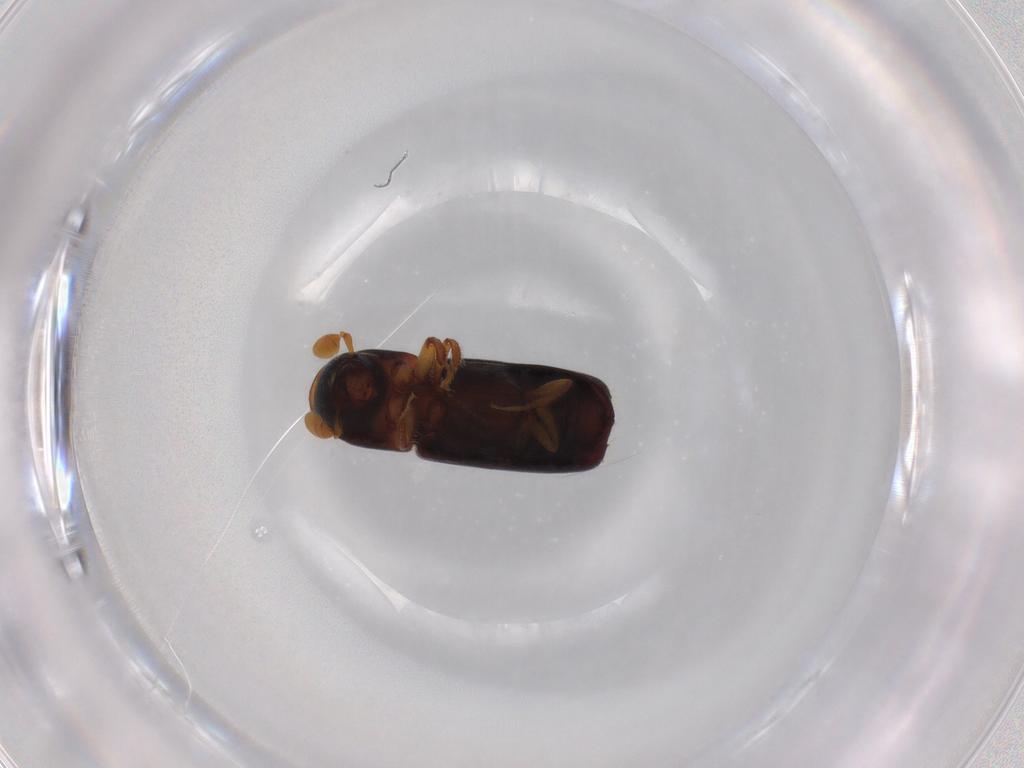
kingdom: Animalia
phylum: Arthropoda
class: Insecta
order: Coleoptera
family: Curculionidae
